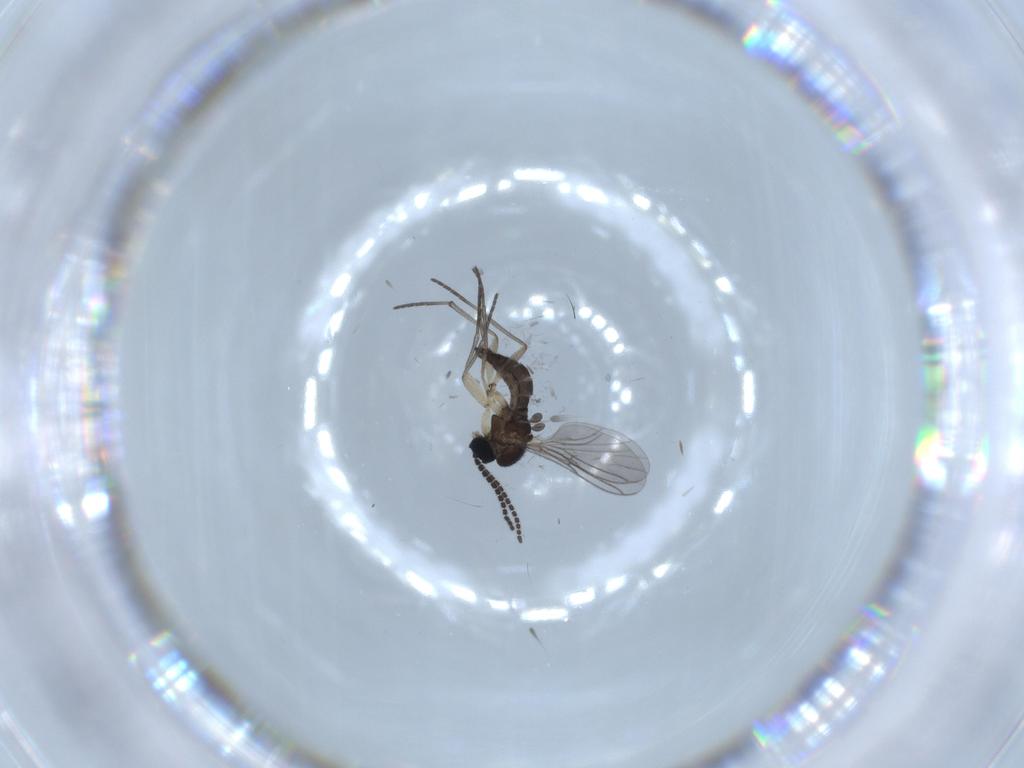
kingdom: Animalia
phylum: Arthropoda
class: Insecta
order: Diptera
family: Sciaridae
